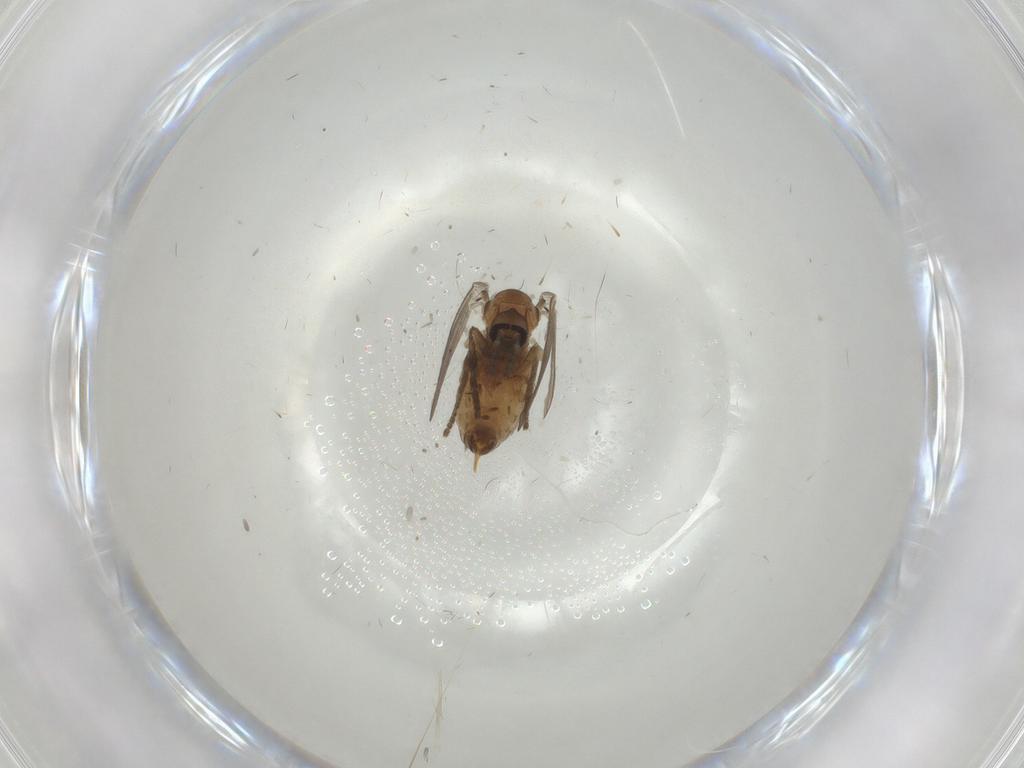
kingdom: Animalia
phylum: Arthropoda
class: Insecta
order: Diptera
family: Psychodidae
